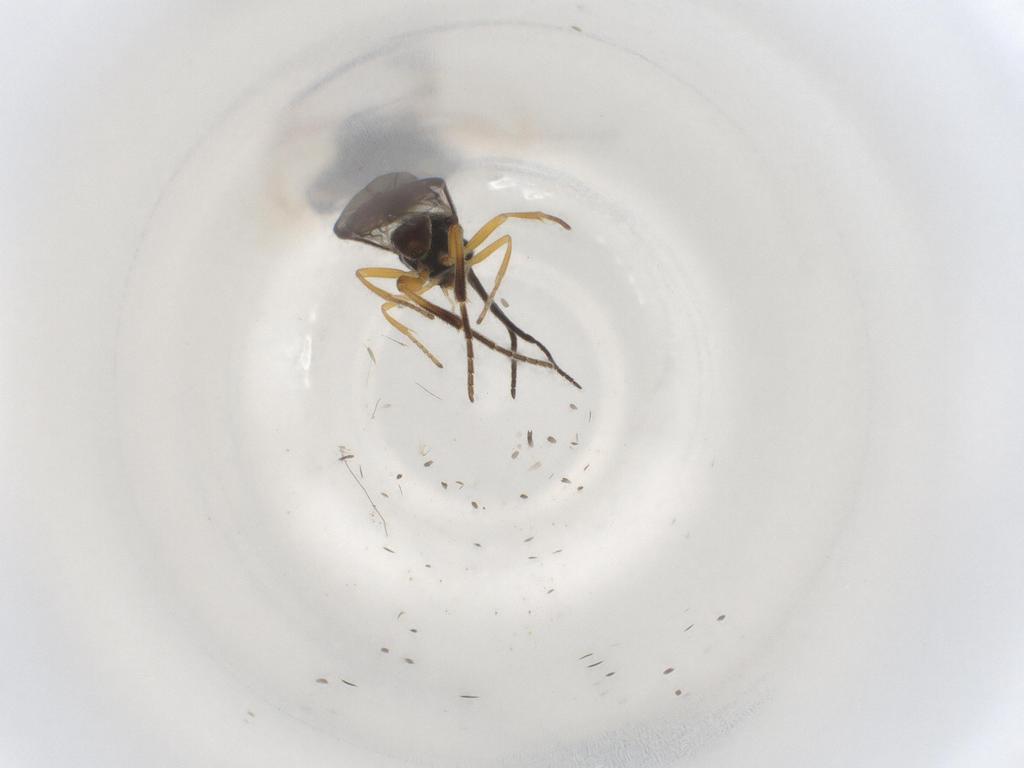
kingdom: Animalia
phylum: Arthropoda
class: Insecta
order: Hymenoptera
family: Braconidae
